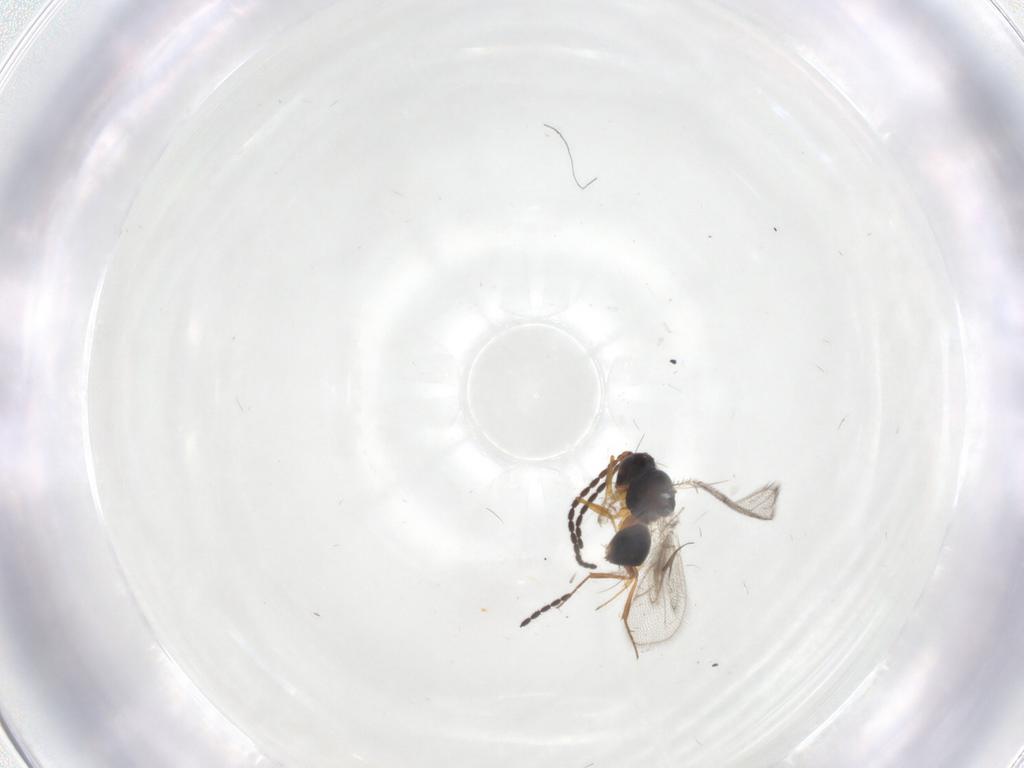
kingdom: Animalia
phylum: Arthropoda
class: Insecta
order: Hymenoptera
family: Figitidae
